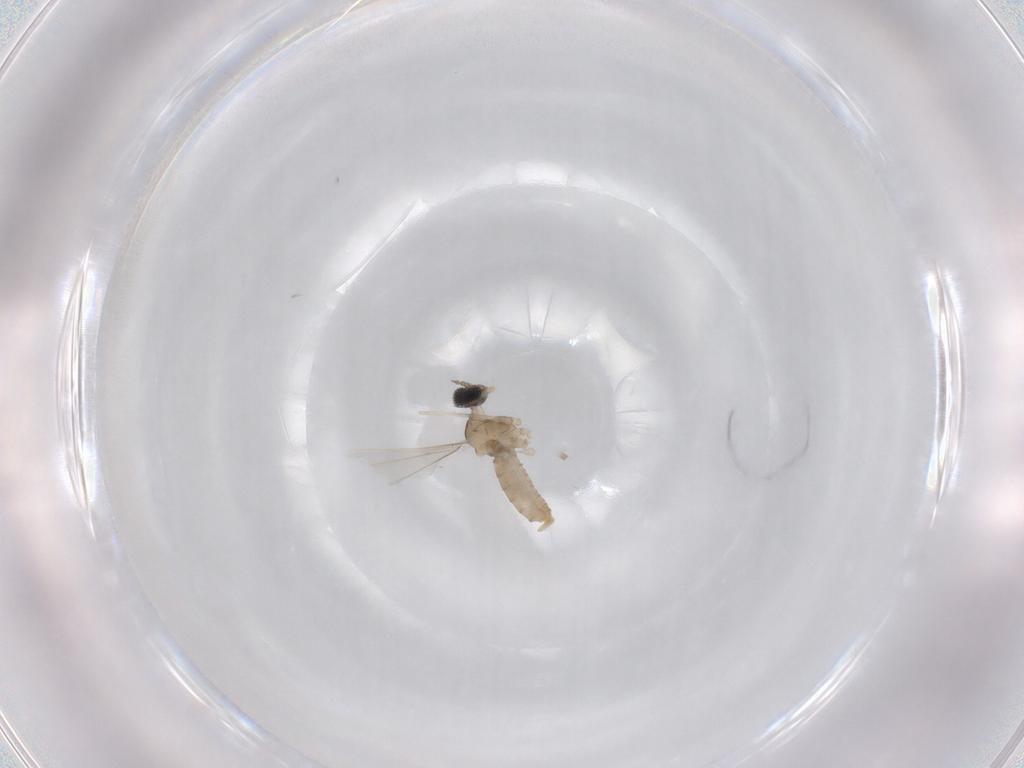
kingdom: Animalia
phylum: Arthropoda
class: Insecta
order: Diptera
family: Cecidomyiidae
